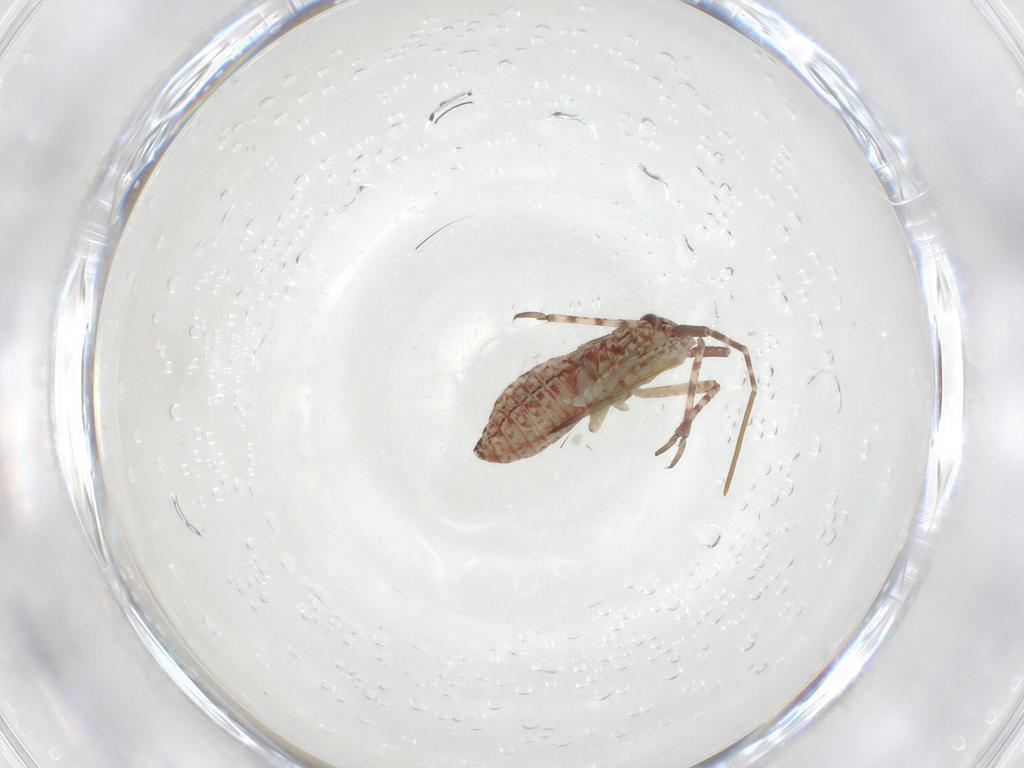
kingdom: Animalia
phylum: Arthropoda
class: Insecta
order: Hemiptera
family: Miridae
